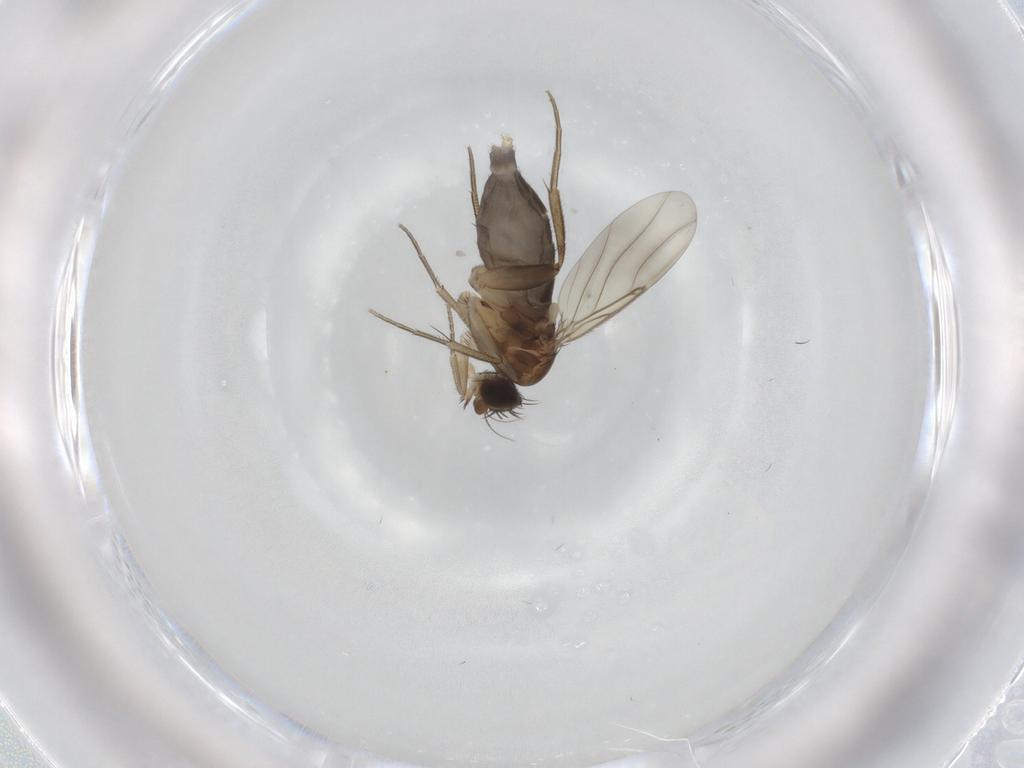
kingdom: Animalia
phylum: Arthropoda
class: Insecta
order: Diptera
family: Phoridae
